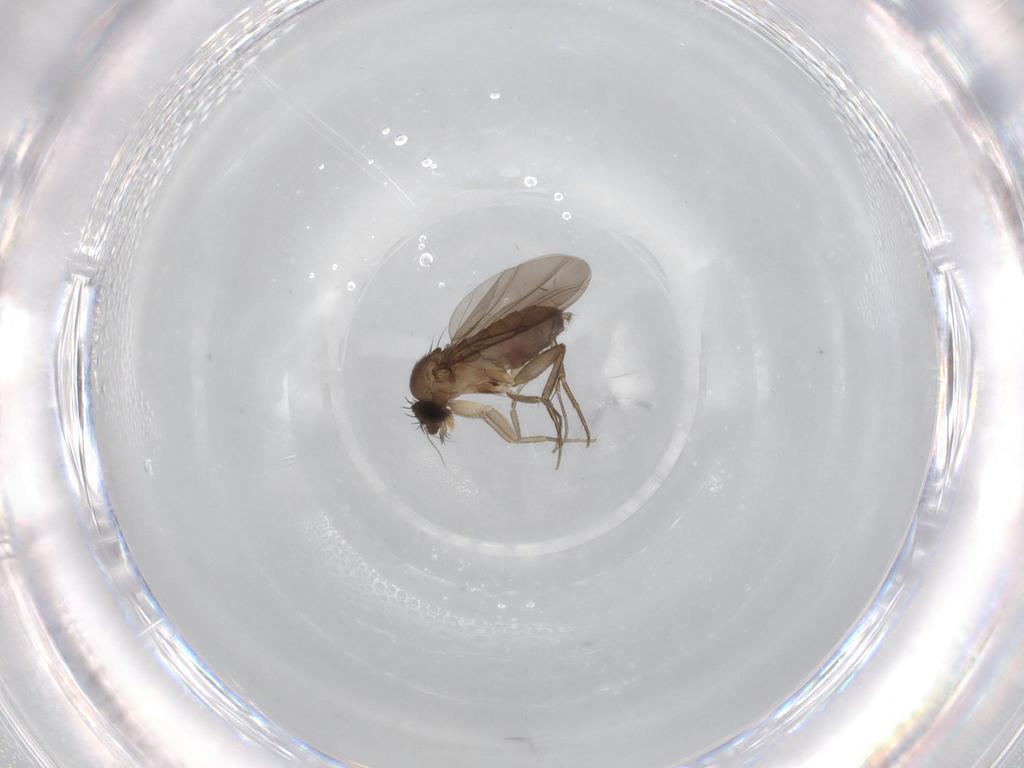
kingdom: Animalia
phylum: Arthropoda
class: Insecta
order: Diptera
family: Phoridae
